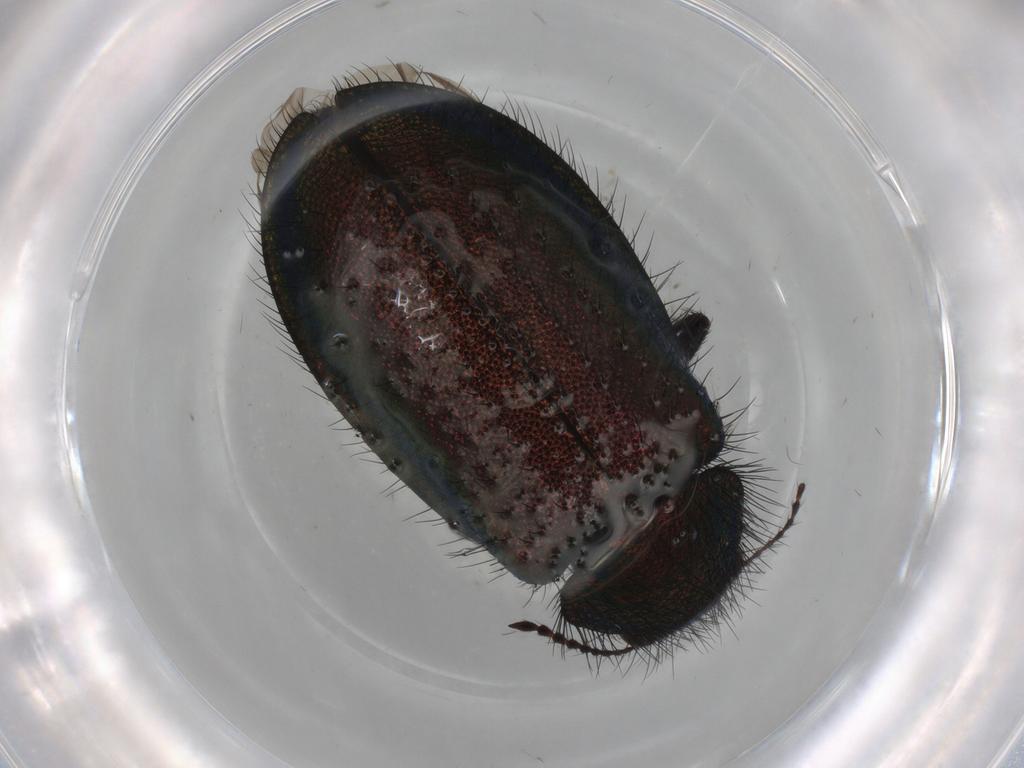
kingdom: Animalia
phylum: Arthropoda
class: Insecta
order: Coleoptera
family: Melyridae
